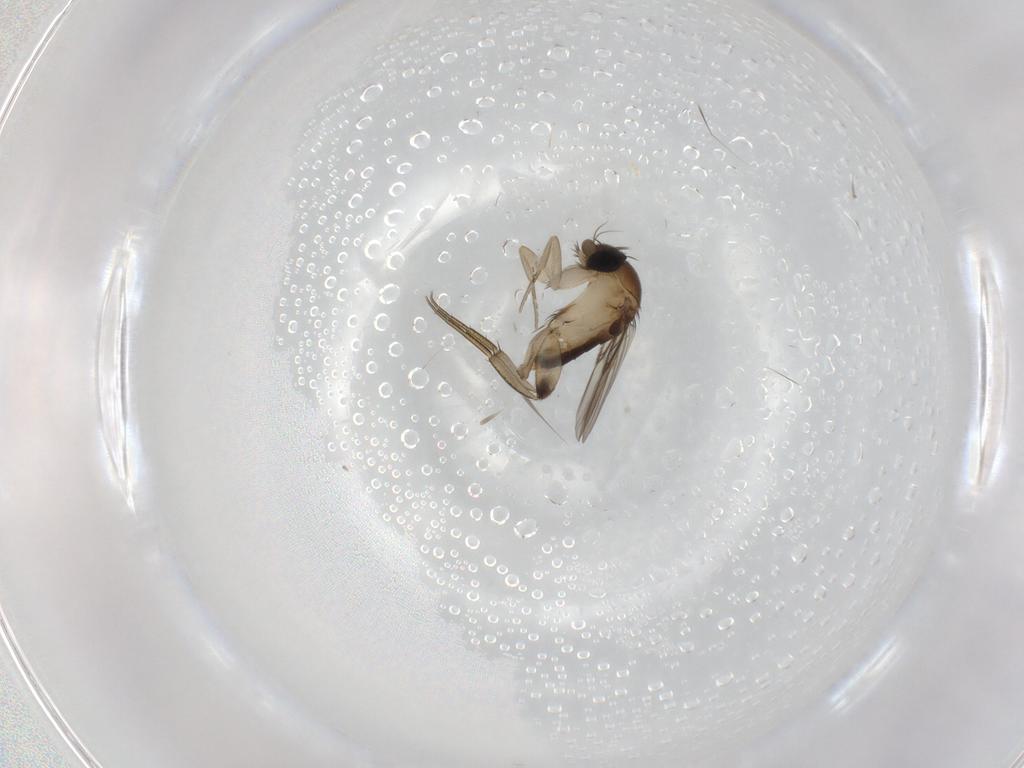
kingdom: Animalia
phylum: Arthropoda
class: Insecta
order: Diptera
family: Phoridae
